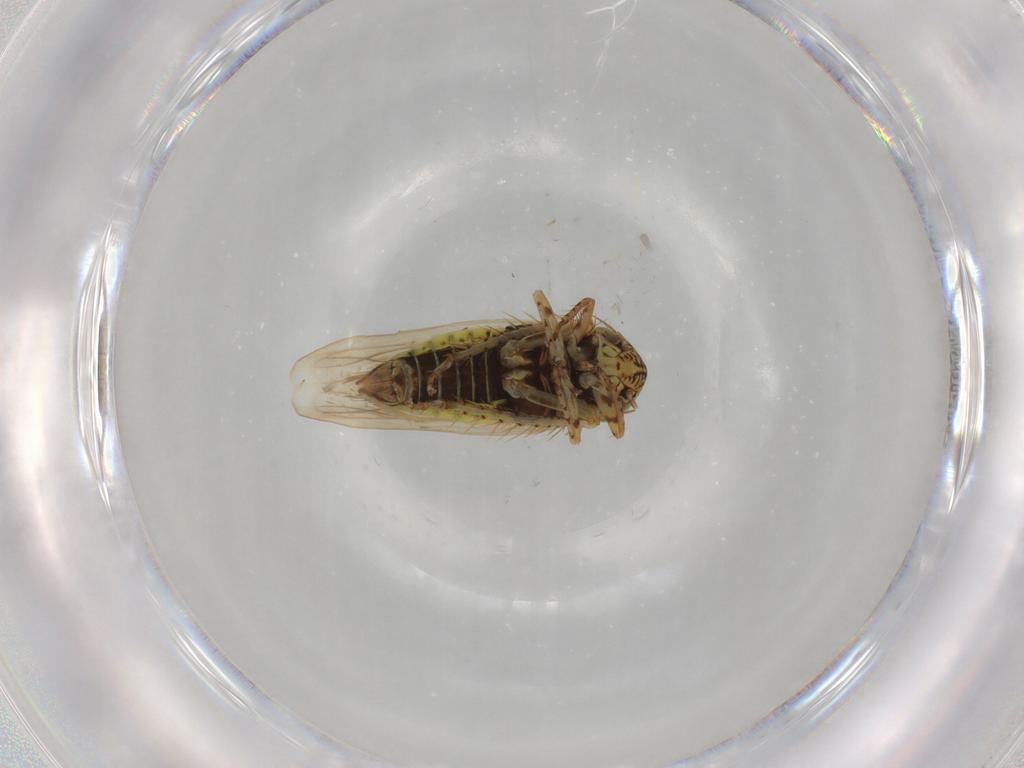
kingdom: Animalia
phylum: Arthropoda
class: Insecta
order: Hemiptera
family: Cicadellidae
